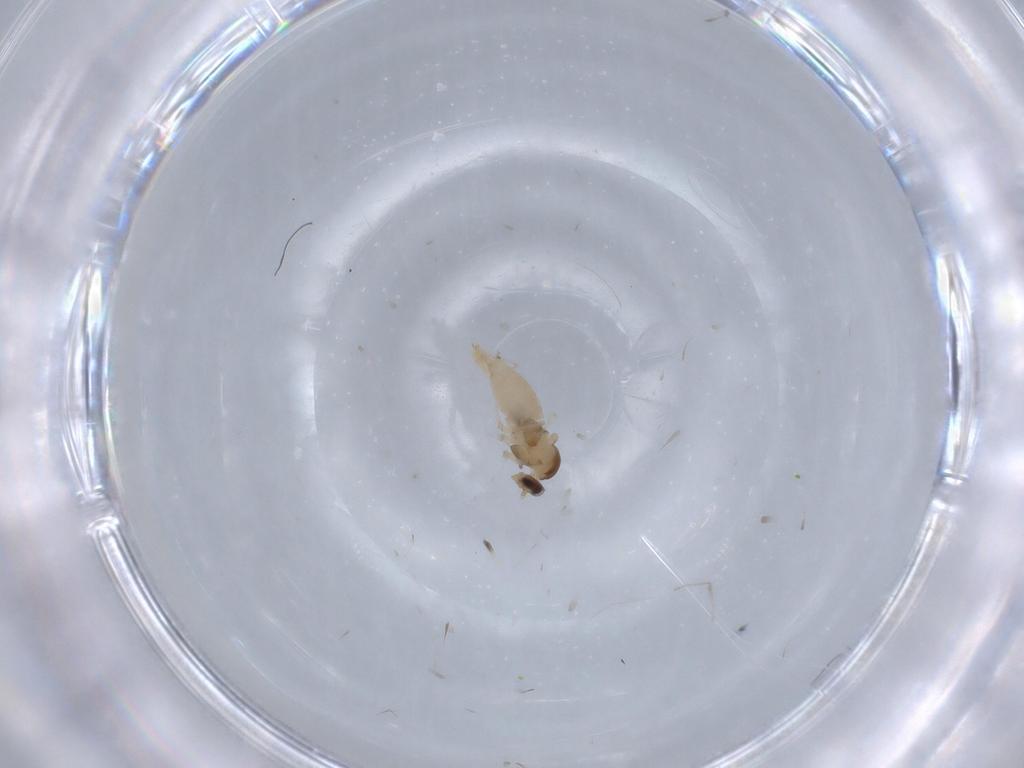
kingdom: Animalia
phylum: Arthropoda
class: Insecta
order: Diptera
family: Cecidomyiidae
